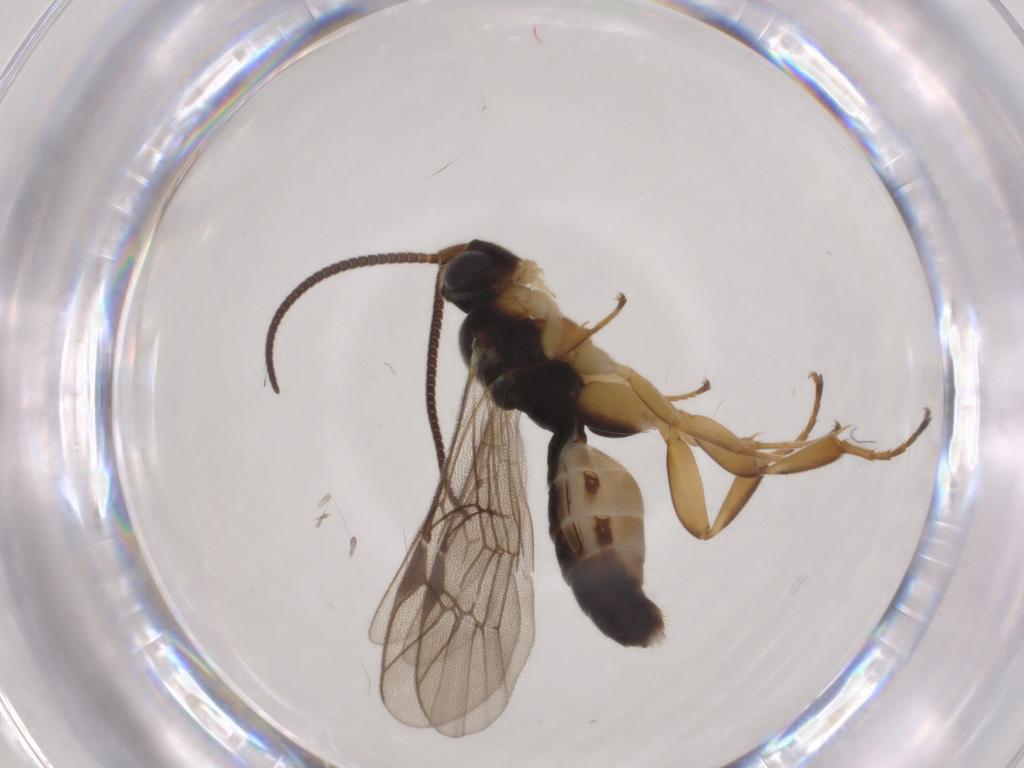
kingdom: Animalia
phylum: Arthropoda
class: Insecta
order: Hymenoptera
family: Ichneumonidae
